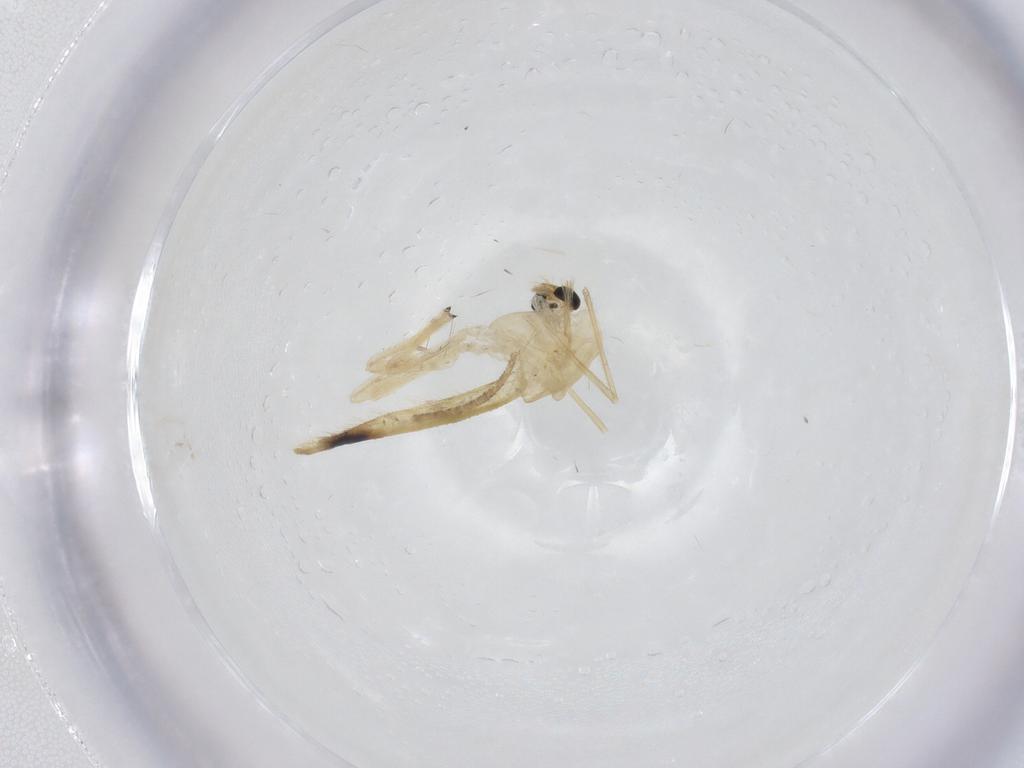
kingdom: Animalia
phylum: Arthropoda
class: Insecta
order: Diptera
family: Chironomidae
